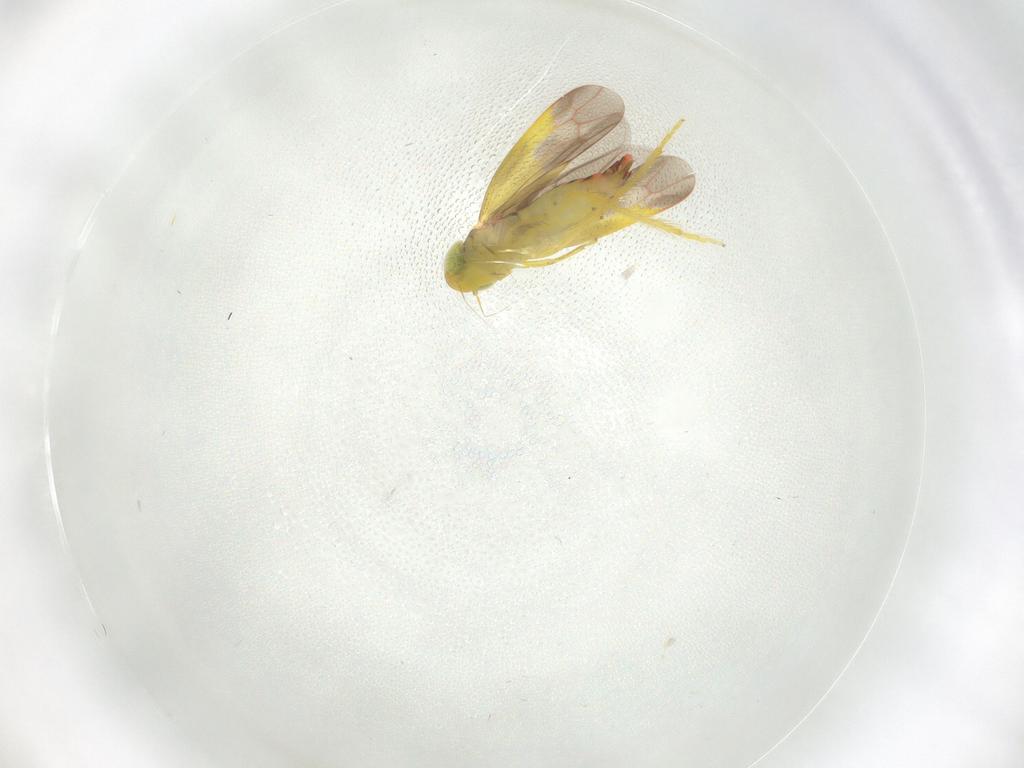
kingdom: Animalia
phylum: Arthropoda
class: Insecta
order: Hemiptera
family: Cicadellidae
